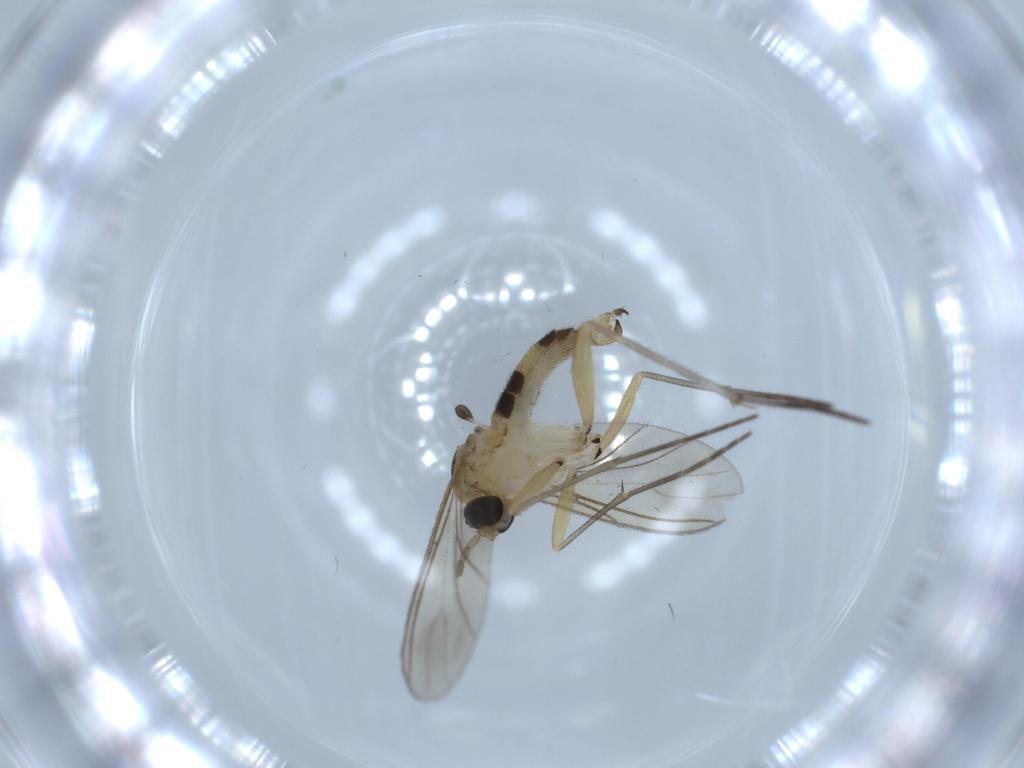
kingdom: Animalia
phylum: Arthropoda
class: Insecta
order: Diptera
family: Sciaridae
